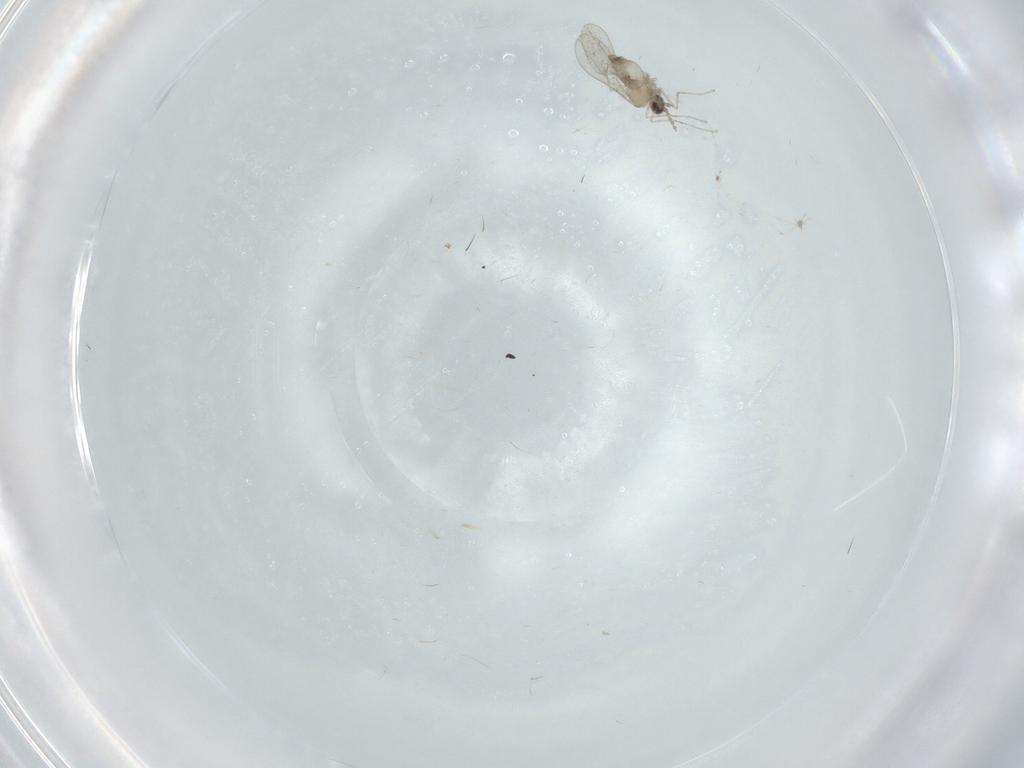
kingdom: Animalia
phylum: Arthropoda
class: Insecta
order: Diptera
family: Cecidomyiidae
